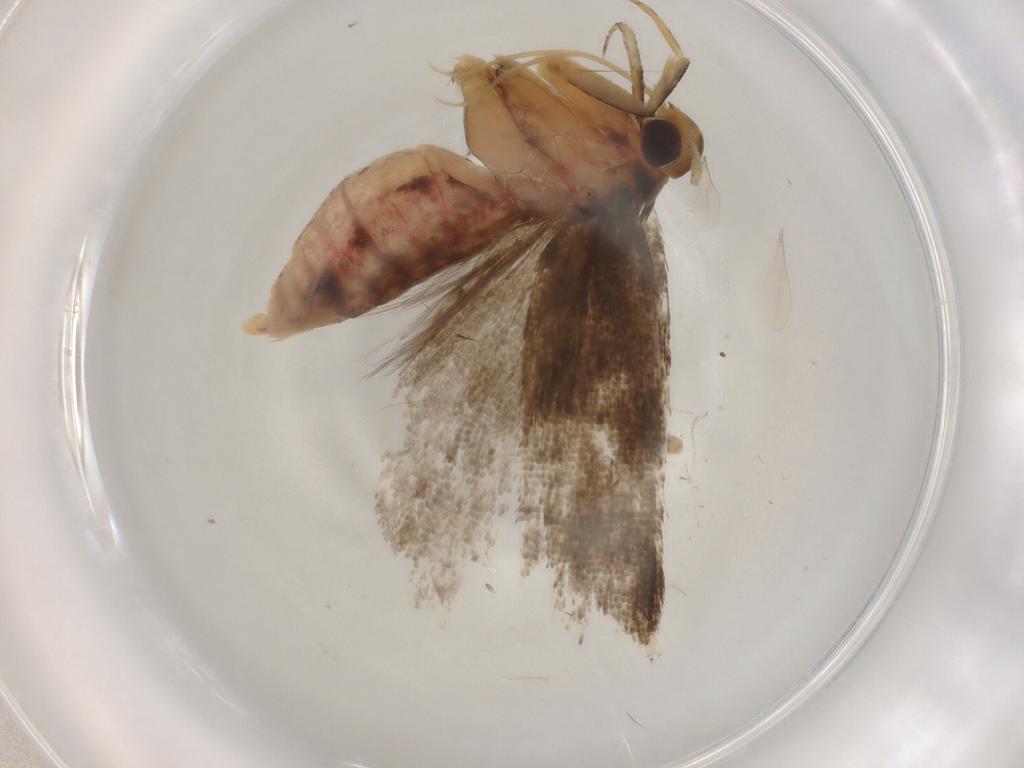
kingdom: Animalia
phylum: Arthropoda
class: Insecta
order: Lepidoptera
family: Lecithoceridae
